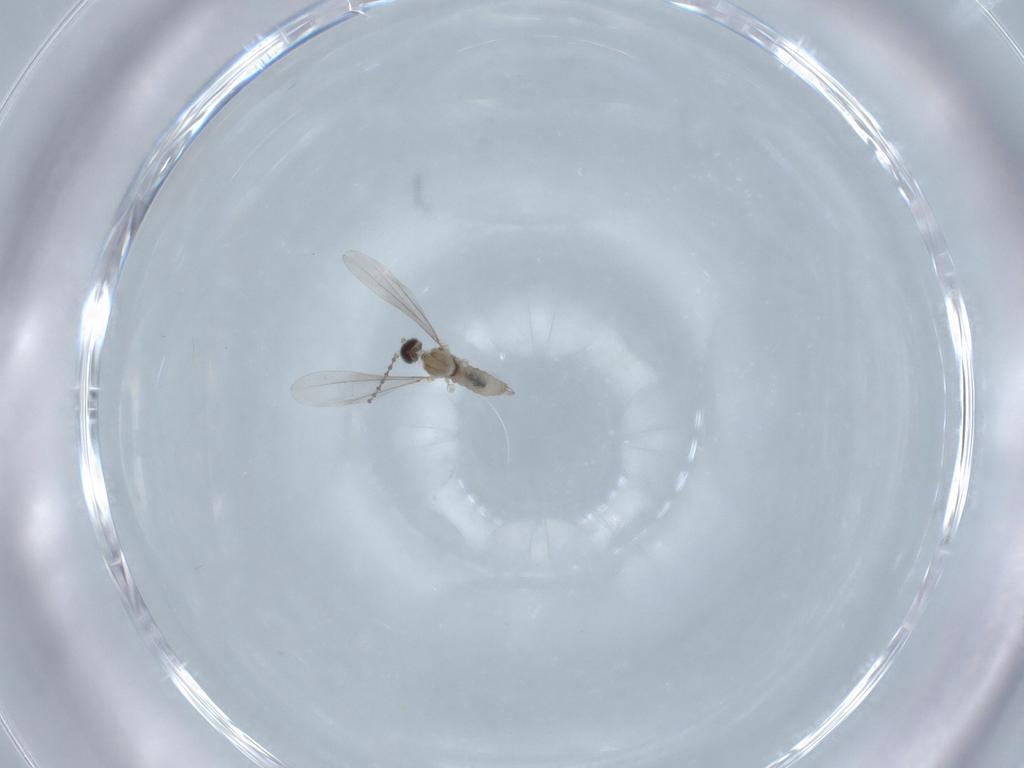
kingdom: Animalia
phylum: Arthropoda
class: Insecta
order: Diptera
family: Cecidomyiidae
